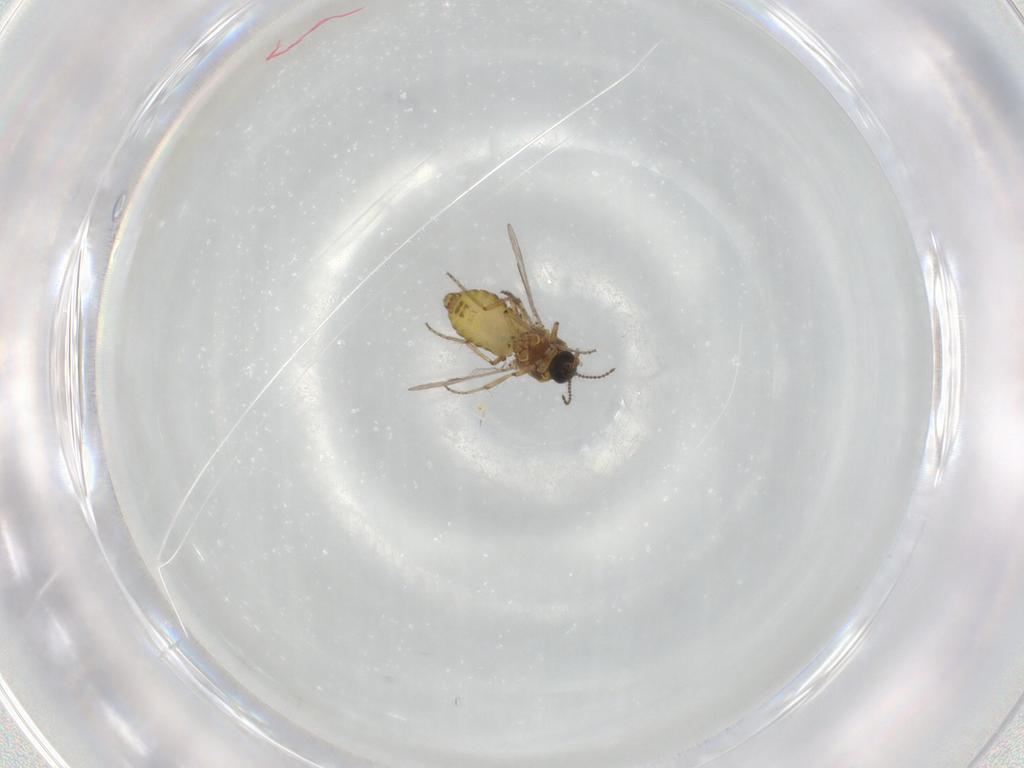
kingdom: Animalia
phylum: Arthropoda
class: Insecta
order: Diptera
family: Ceratopogonidae
